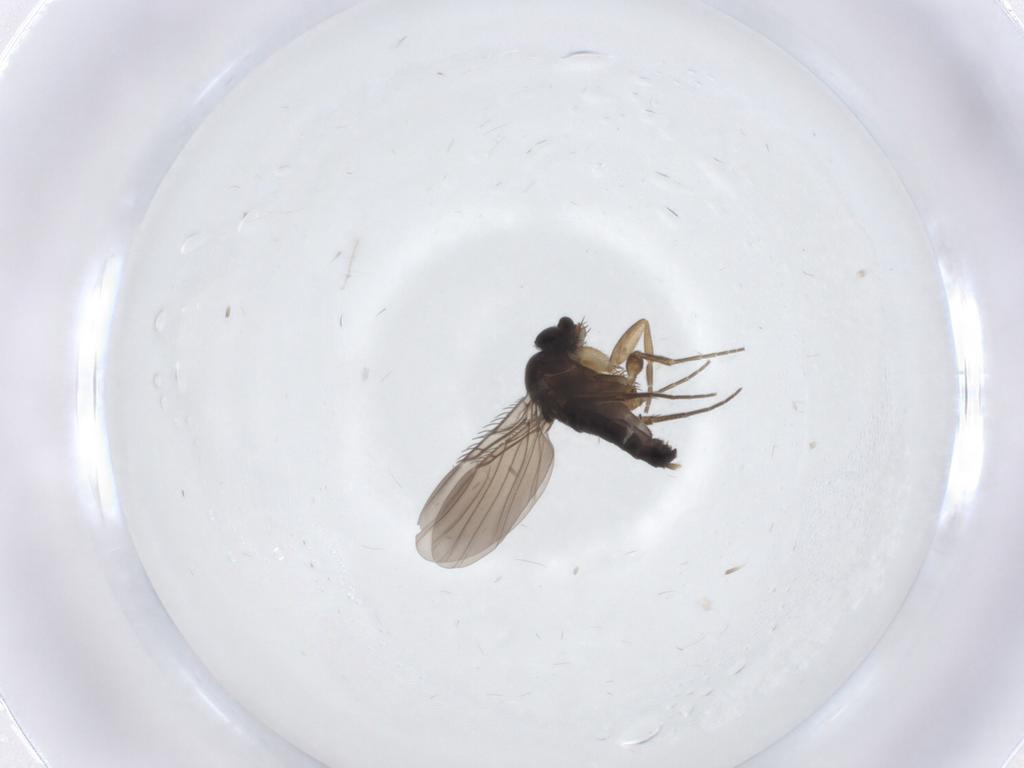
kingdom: Animalia
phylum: Arthropoda
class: Insecta
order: Diptera
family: Phoridae
